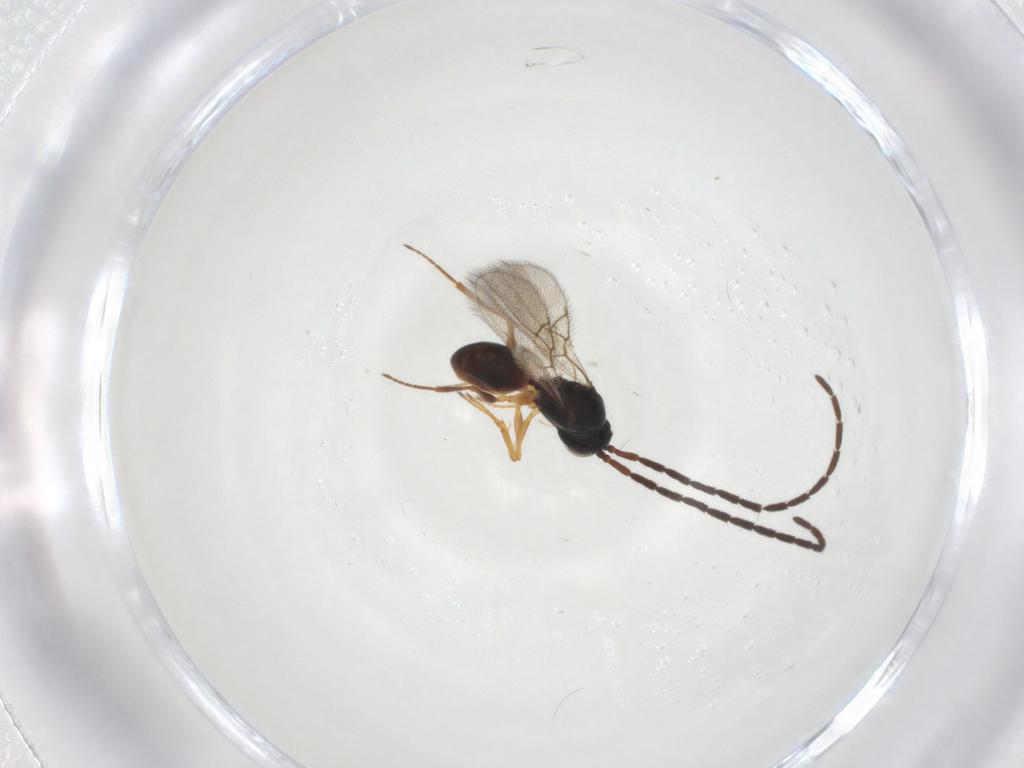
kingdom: Animalia
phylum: Arthropoda
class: Insecta
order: Hymenoptera
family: Figitidae
